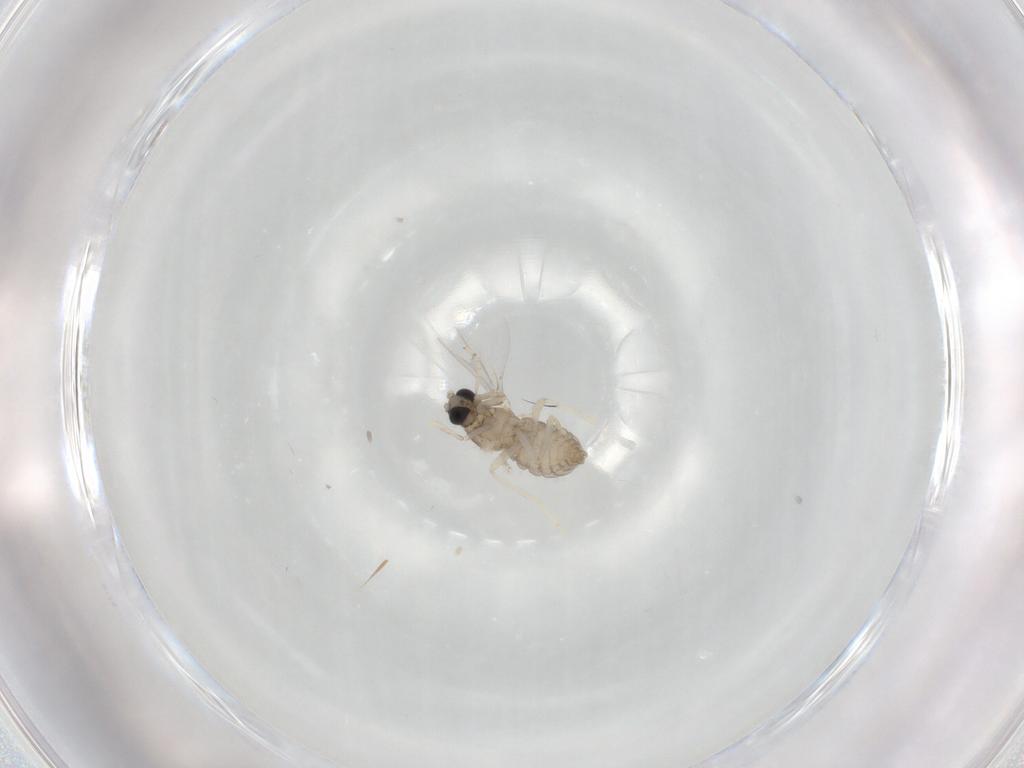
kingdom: Animalia
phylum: Arthropoda
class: Insecta
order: Diptera
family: Cecidomyiidae
